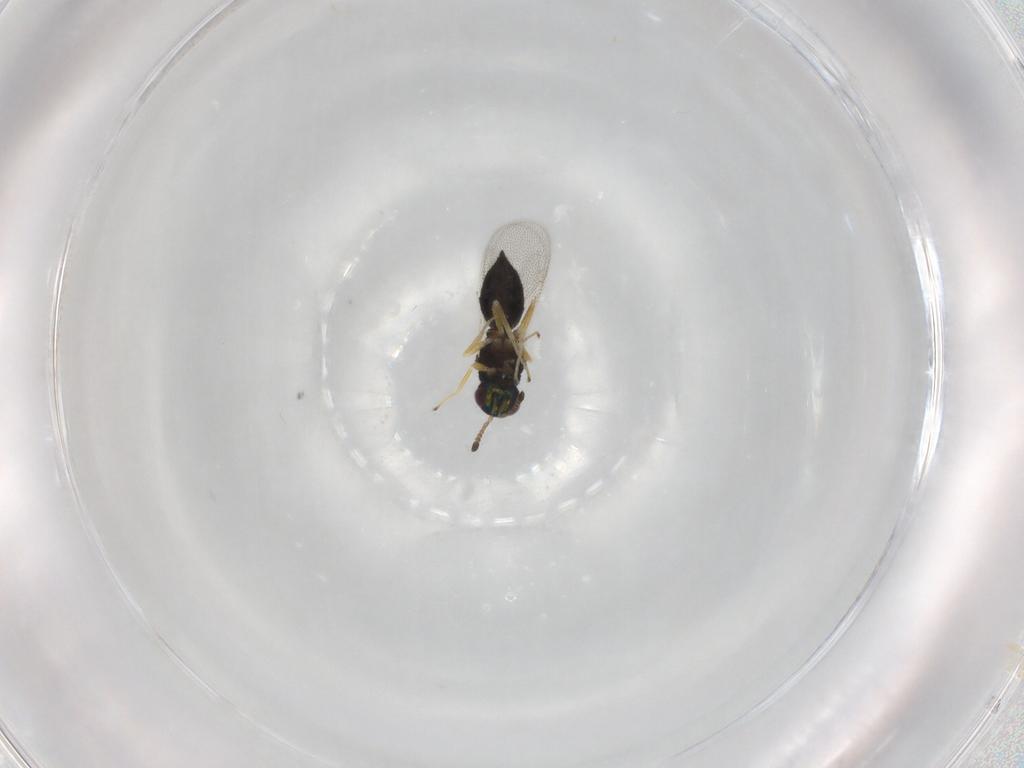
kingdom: Animalia
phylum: Arthropoda
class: Insecta
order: Hymenoptera
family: Tetracampidae
